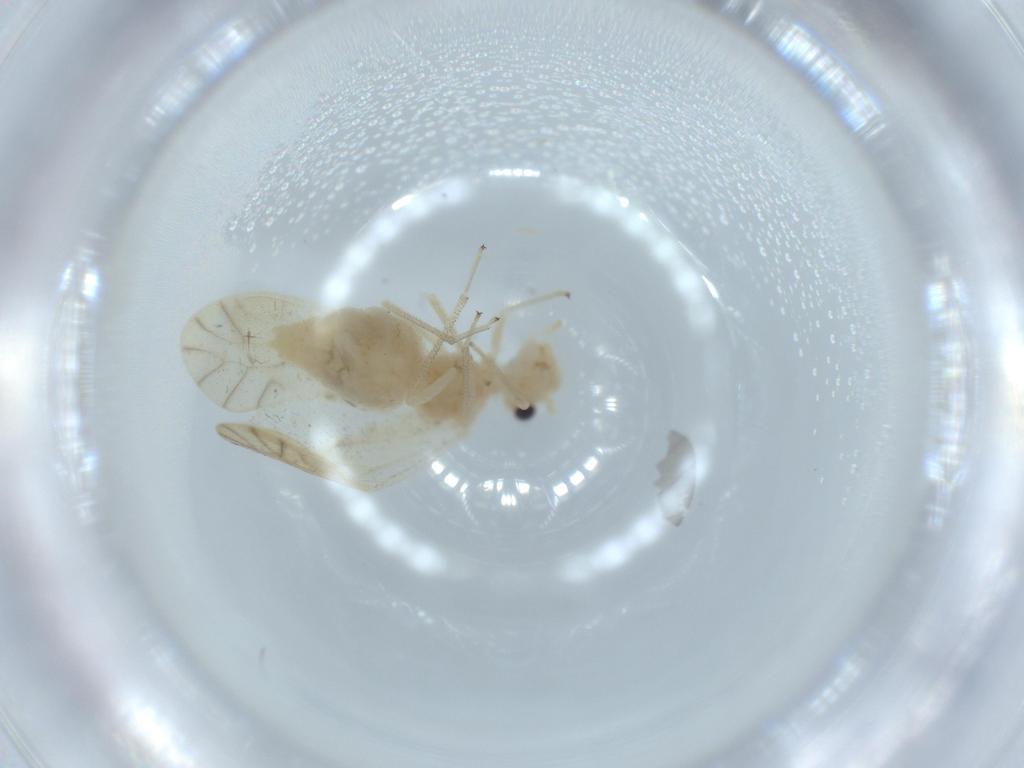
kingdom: Animalia
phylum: Arthropoda
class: Insecta
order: Psocodea
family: Caeciliusidae
